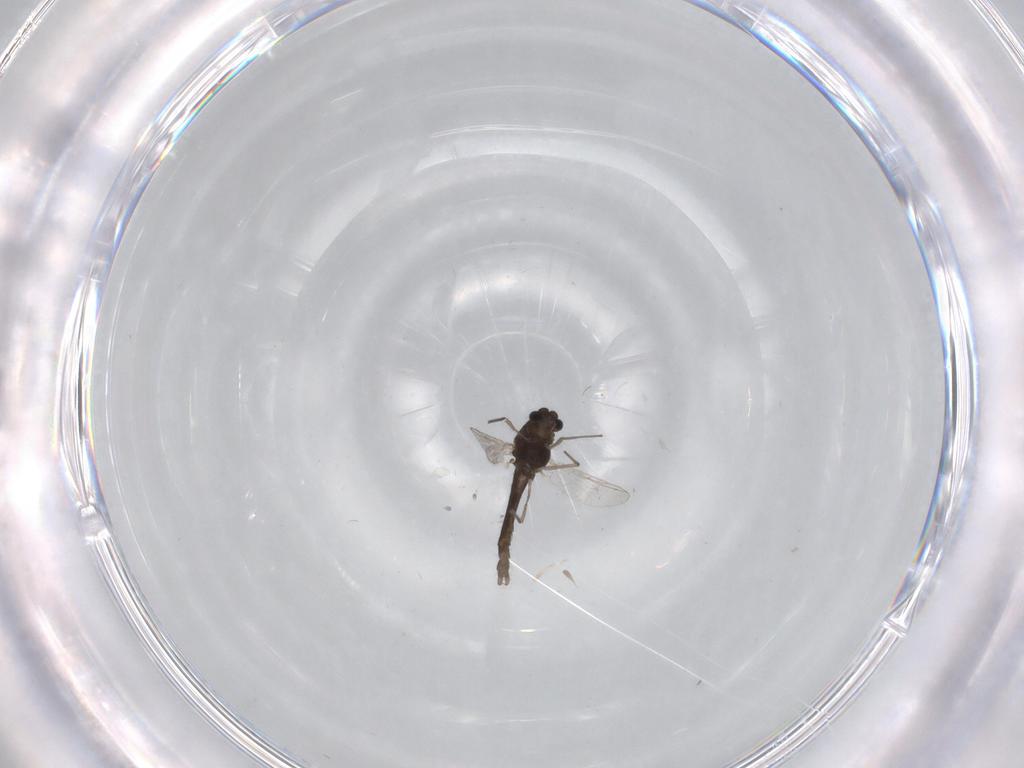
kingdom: Animalia
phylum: Arthropoda
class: Insecta
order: Diptera
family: Chironomidae
